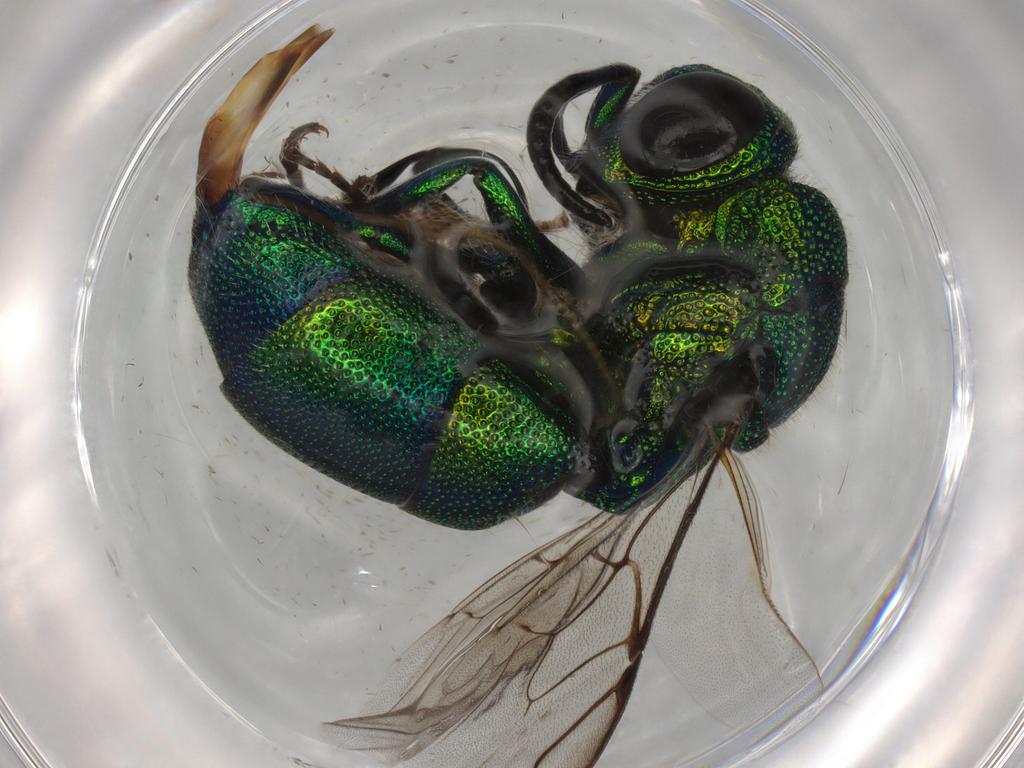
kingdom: Animalia
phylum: Arthropoda
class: Insecta
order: Hymenoptera
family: Chrysididae
